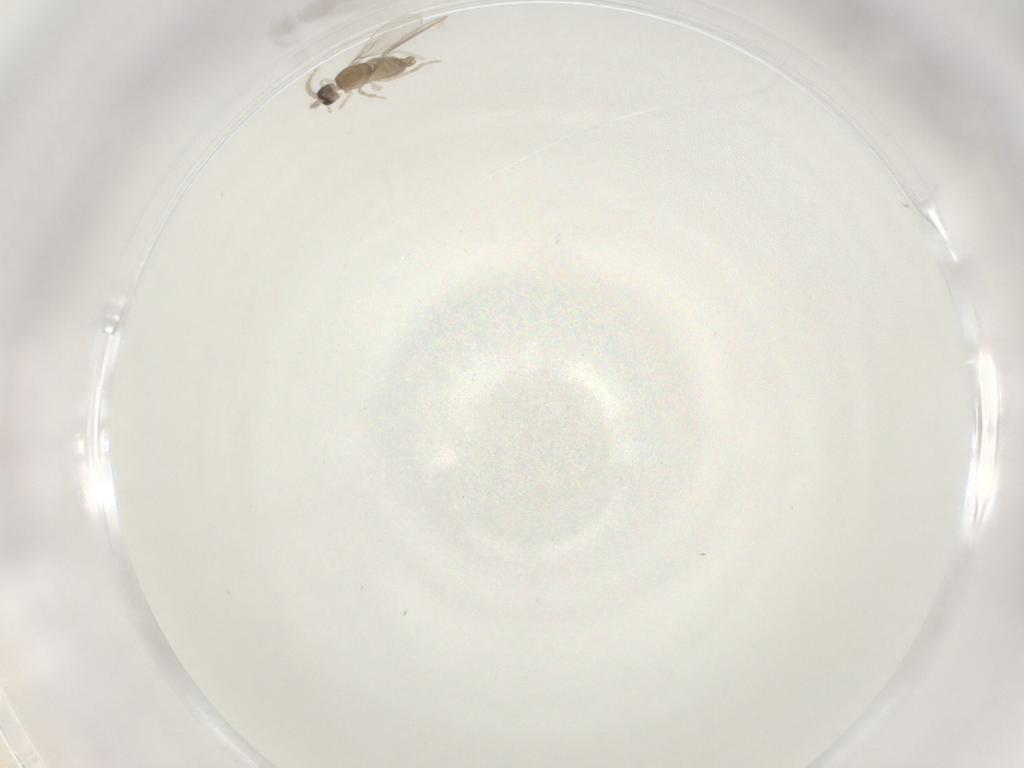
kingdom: Animalia
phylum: Arthropoda
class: Insecta
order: Diptera
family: Cecidomyiidae
